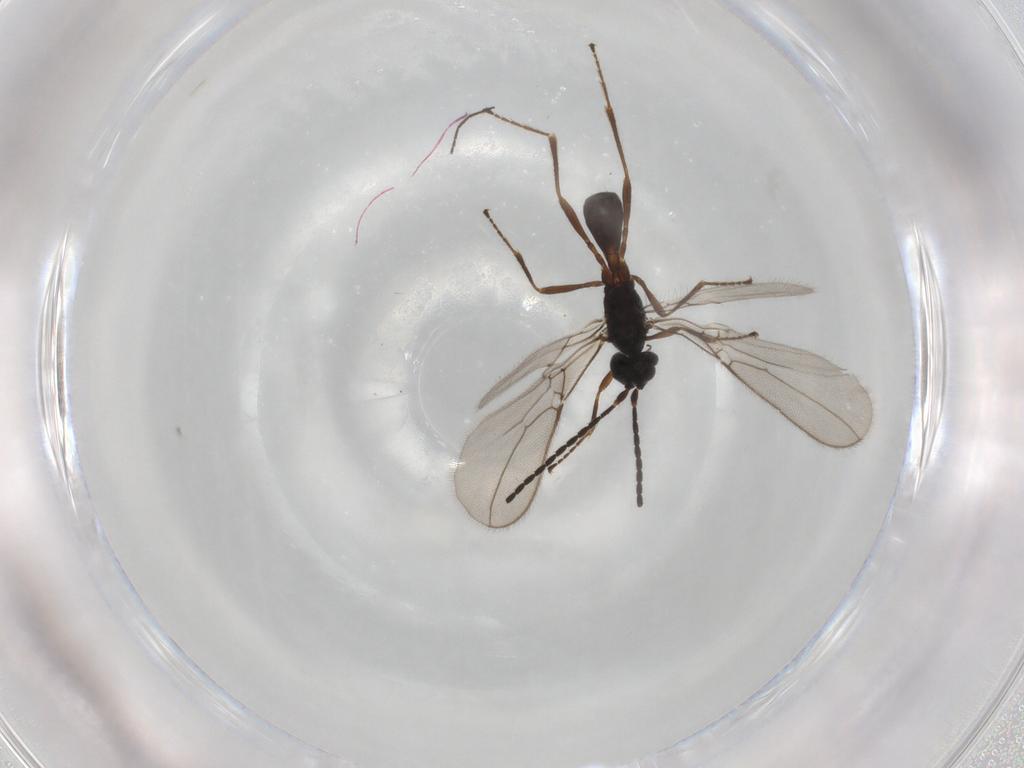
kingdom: Animalia
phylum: Arthropoda
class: Insecta
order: Hymenoptera
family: Braconidae
